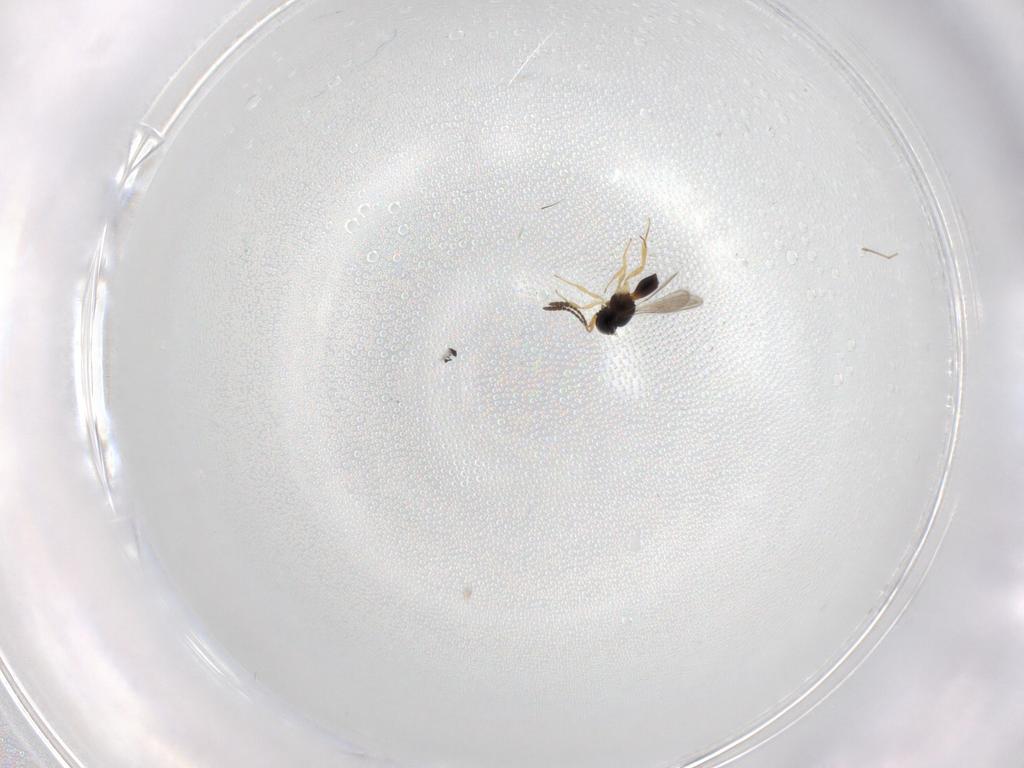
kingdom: Animalia
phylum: Arthropoda
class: Insecta
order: Hymenoptera
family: Scelionidae
